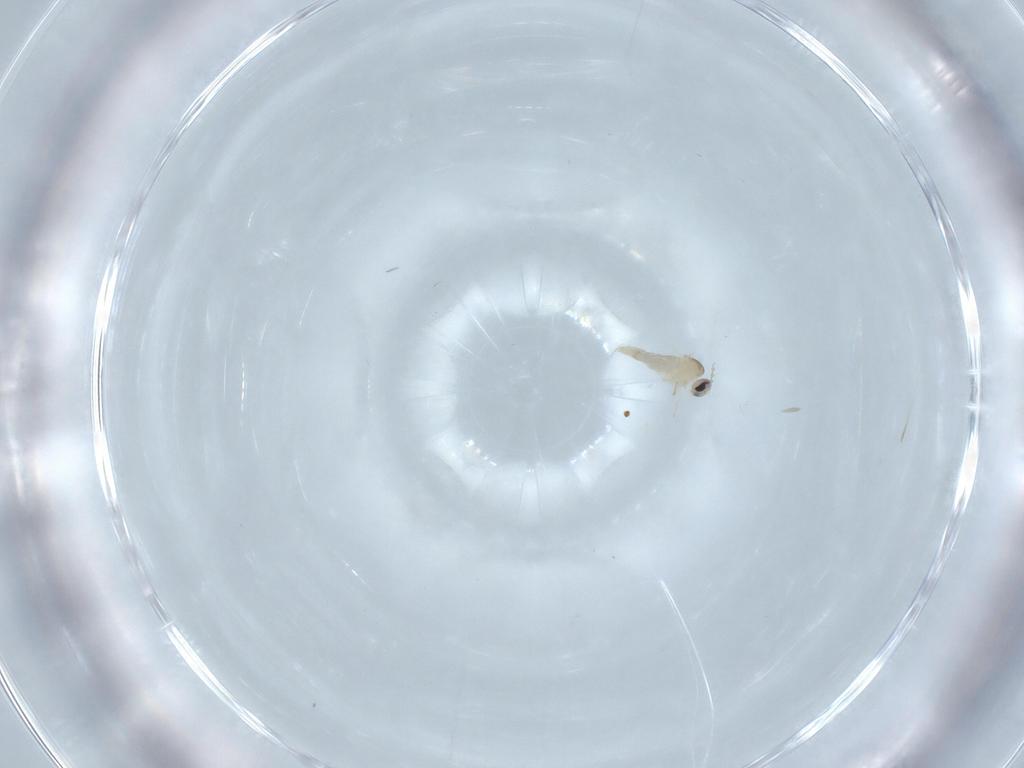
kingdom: Animalia
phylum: Arthropoda
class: Insecta
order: Diptera
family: Cecidomyiidae
